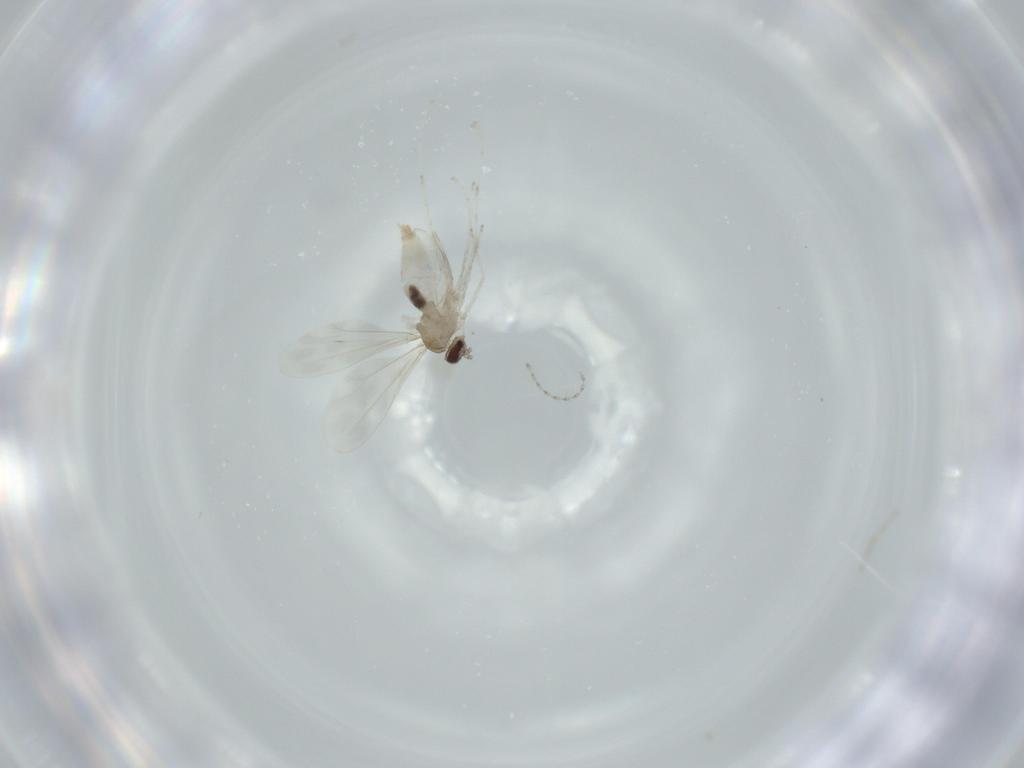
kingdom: Animalia
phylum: Arthropoda
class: Insecta
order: Diptera
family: Cecidomyiidae
